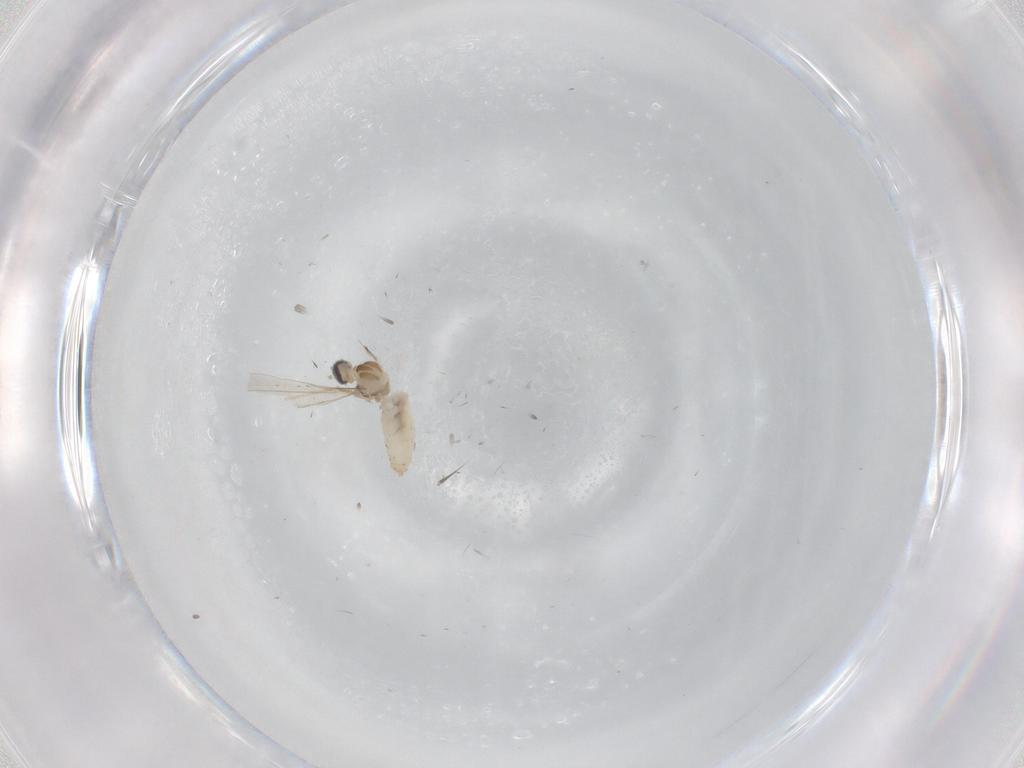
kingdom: Animalia
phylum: Arthropoda
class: Insecta
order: Diptera
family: Cecidomyiidae
